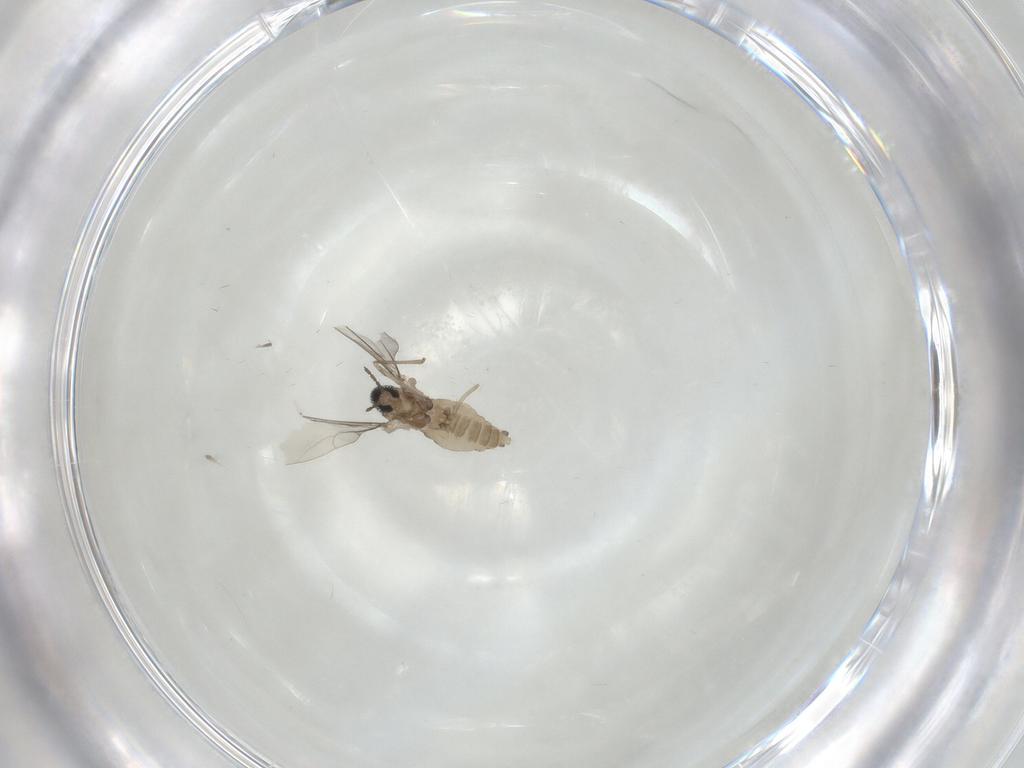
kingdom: Animalia
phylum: Arthropoda
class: Insecta
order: Diptera
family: Cecidomyiidae
